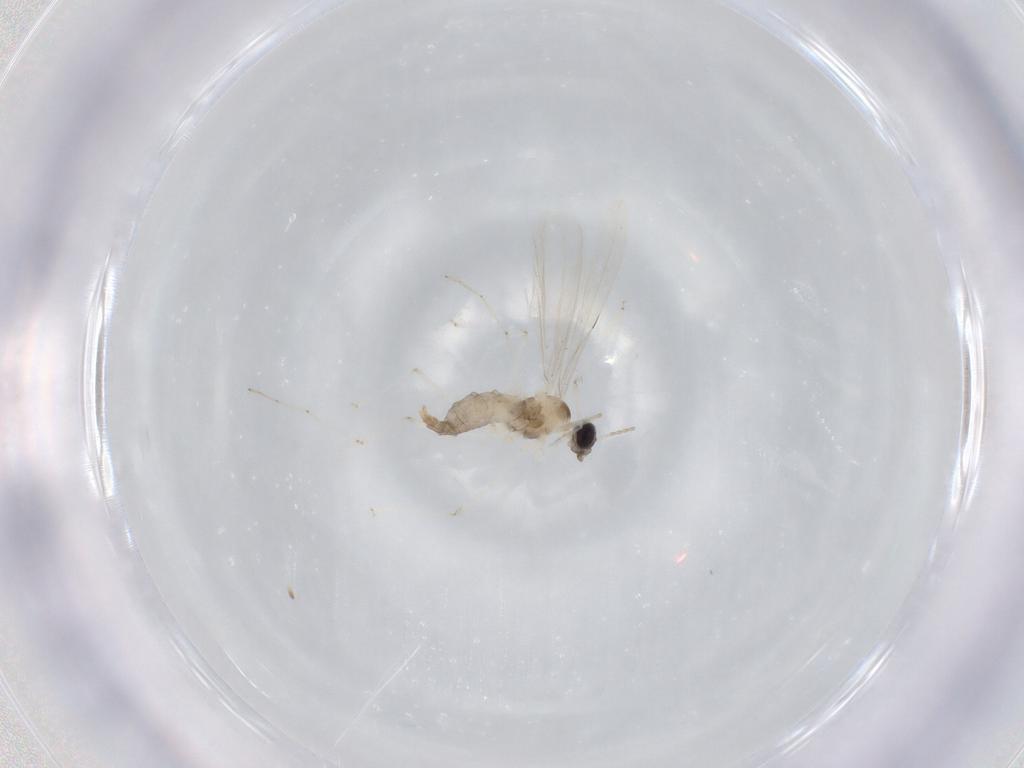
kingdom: Animalia
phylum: Arthropoda
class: Insecta
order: Diptera
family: Cecidomyiidae
